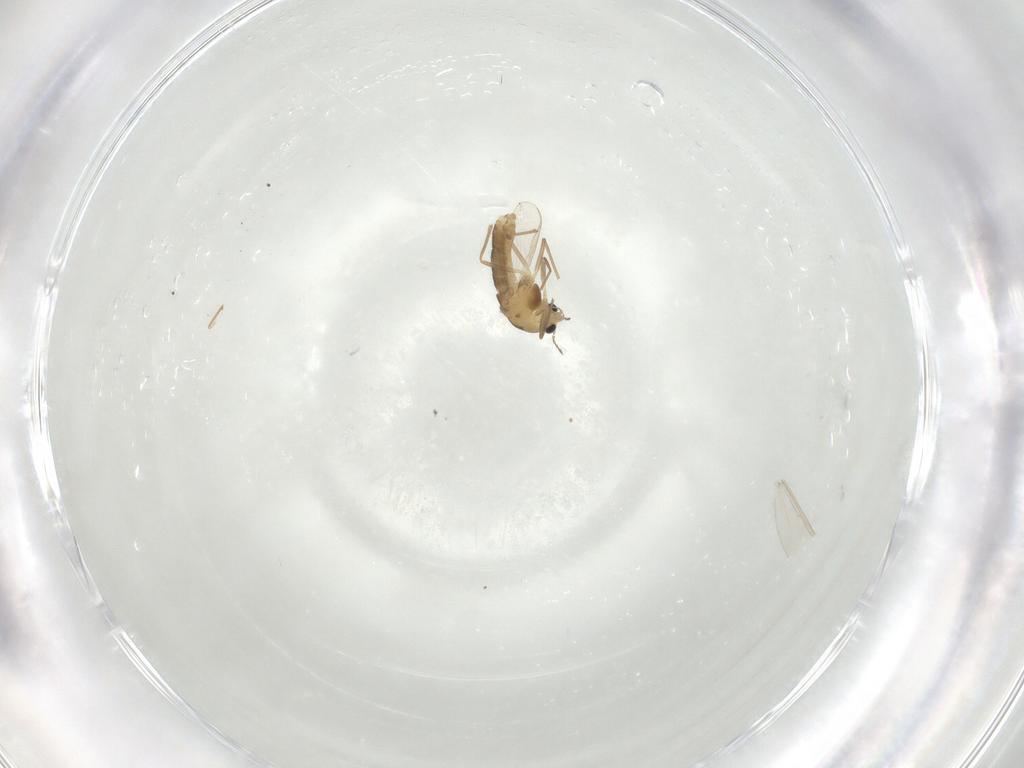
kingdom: Animalia
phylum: Arthropoda
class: Insecta
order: Diptera
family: Chironomidae
